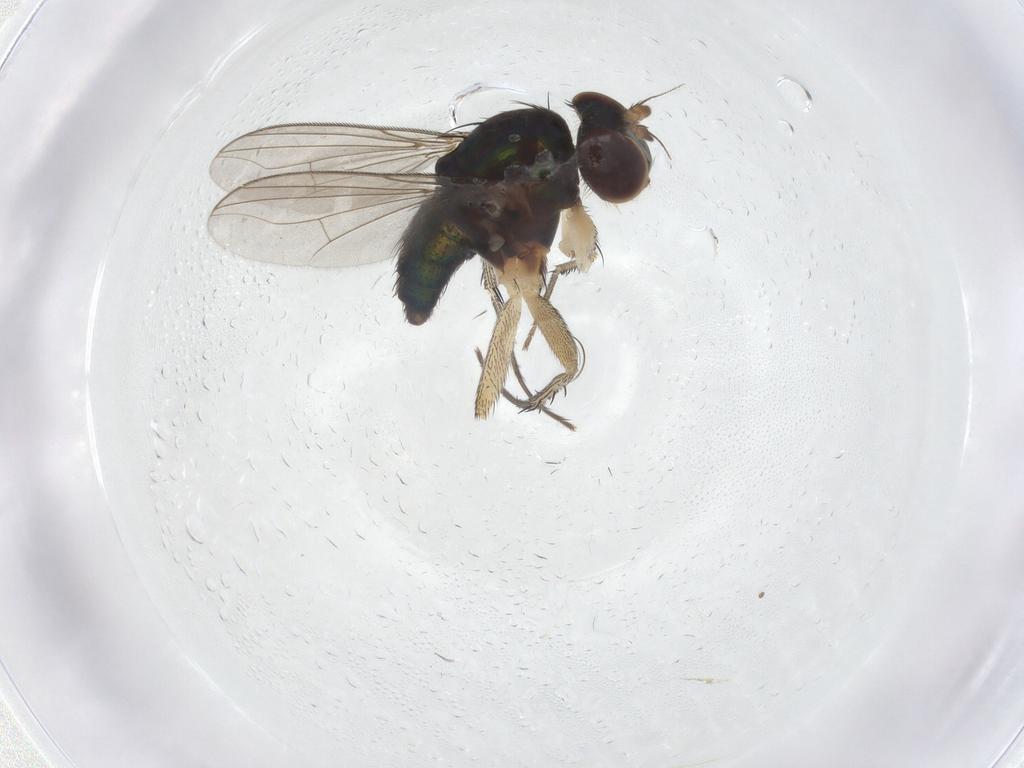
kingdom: Animalia
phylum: Arthropoda
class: Insecta
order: Diptera
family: Dolichopodidae
